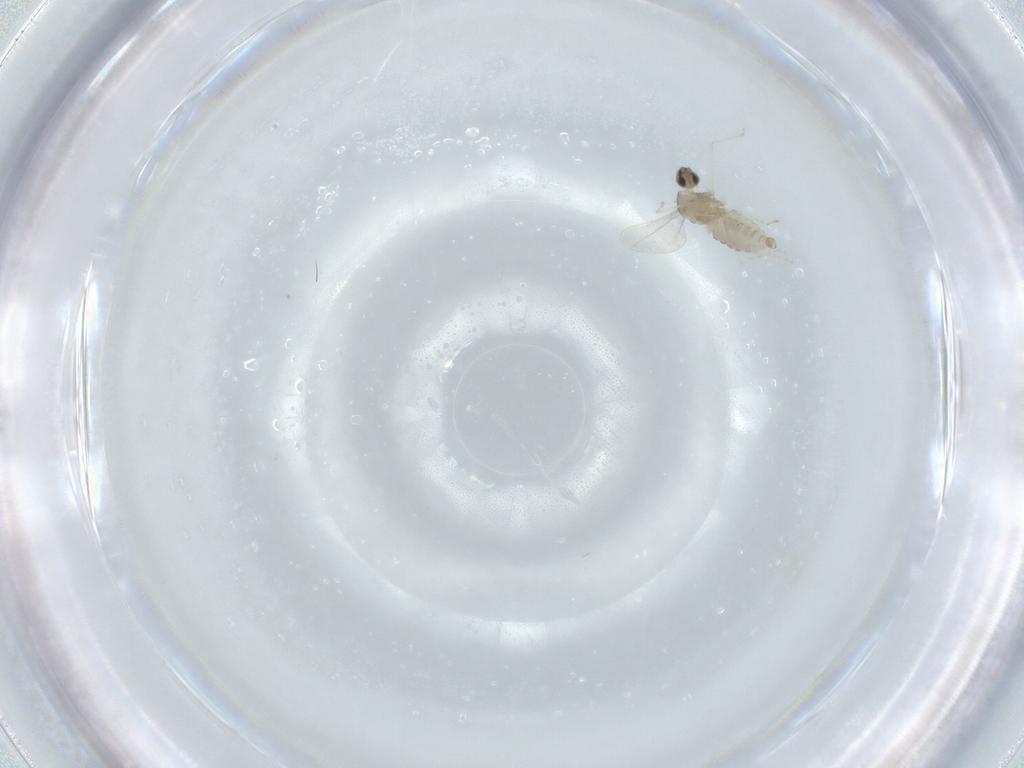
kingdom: Animalia
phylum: Arthropoda
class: Insecta
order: Diptera
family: Cecidomyiidae
